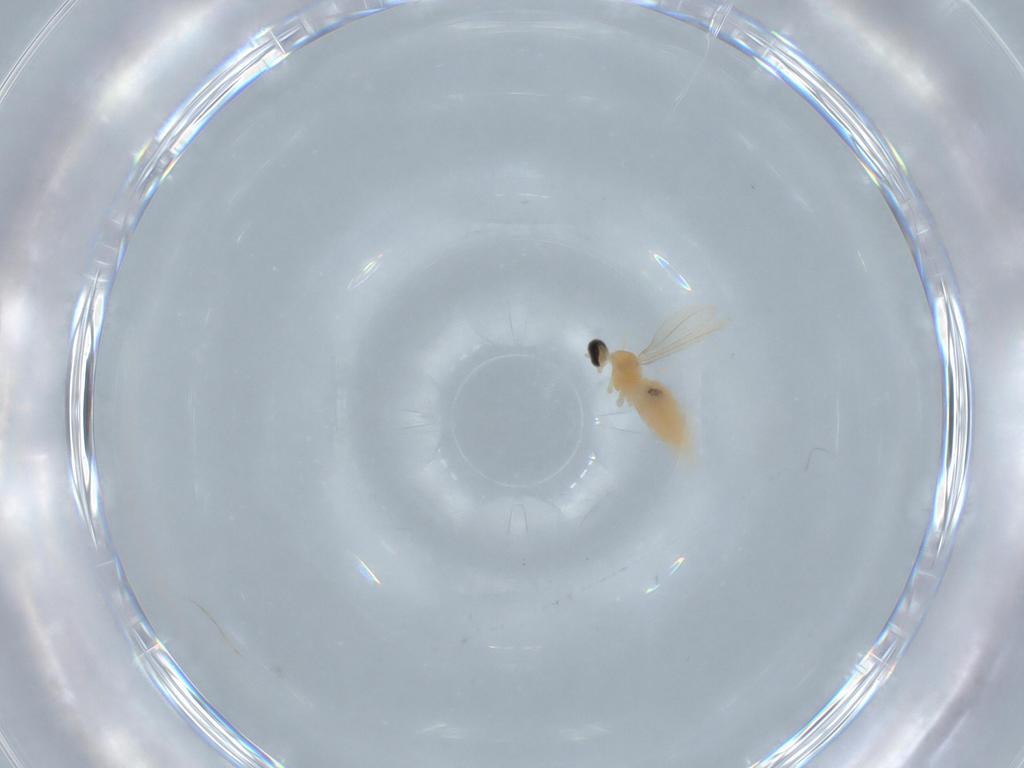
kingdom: Animalia
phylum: Arthropoda
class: Insecta
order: Diptera
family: Cecidomyiidae
